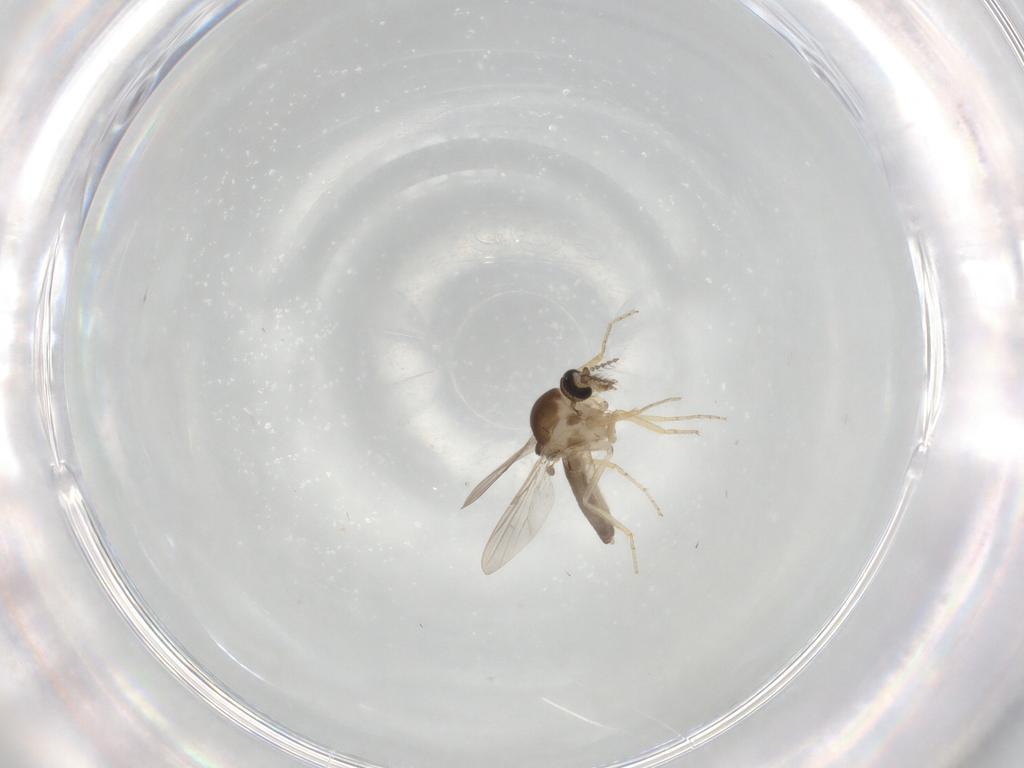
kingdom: Animalia
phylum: Arthropoda
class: Insecta
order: Diptera
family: Ceratopogonidae
